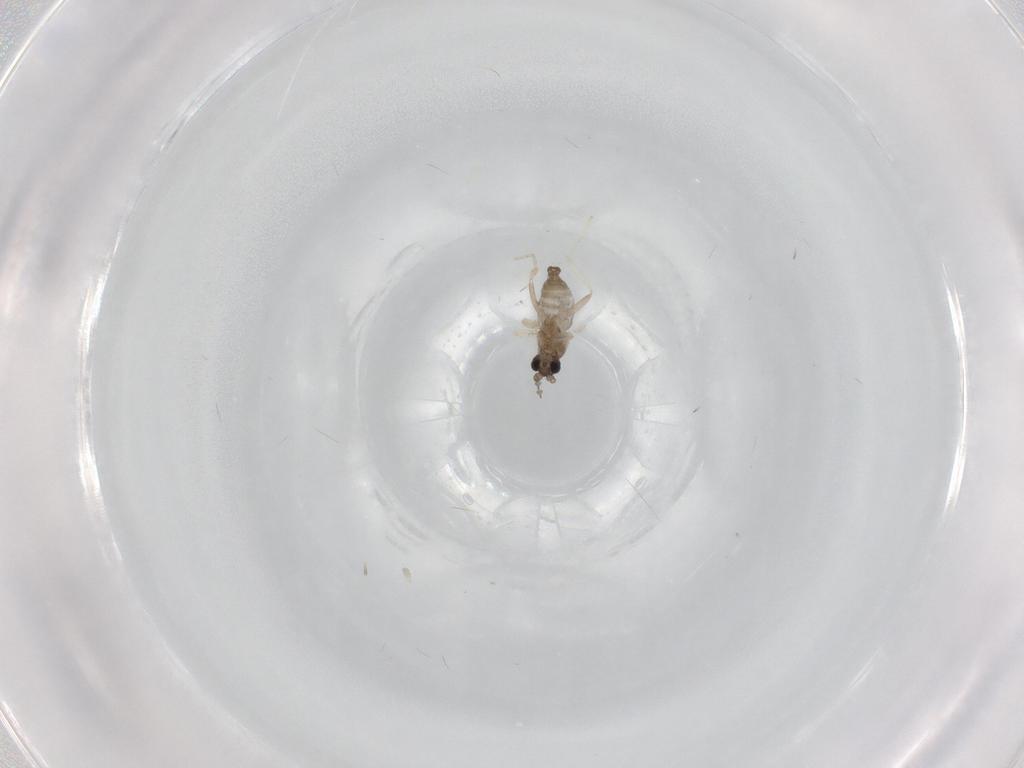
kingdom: Animalia
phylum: Arthropoda
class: Insecta
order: Diptera
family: Cecidomyiidae
